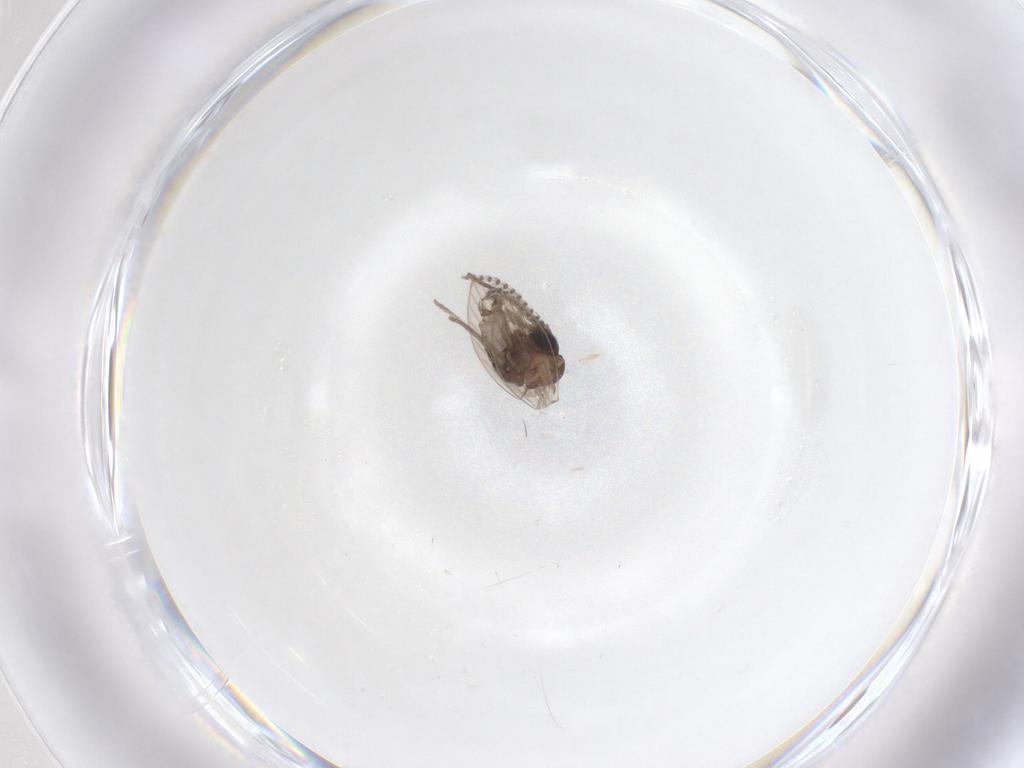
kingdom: Animalia
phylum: Arthropoda
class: Insecta
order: Diptera
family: Psychodidae
